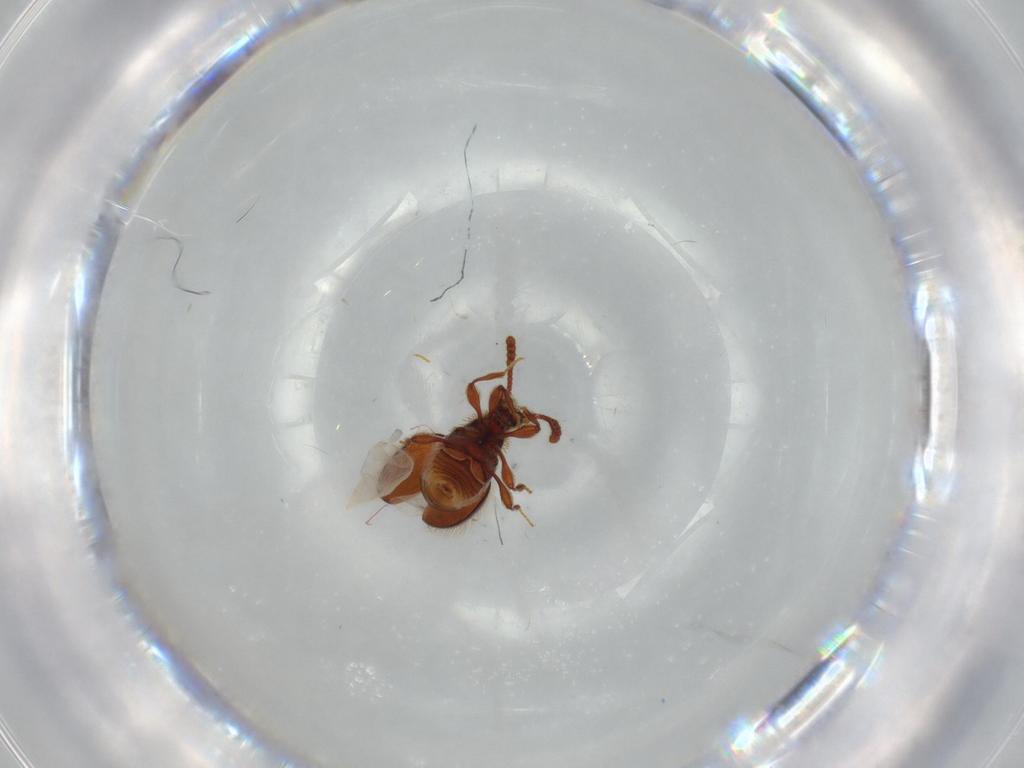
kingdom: Animalia
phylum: Arthropoda
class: Insecta
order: Coleoptera
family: Staphylinidae
